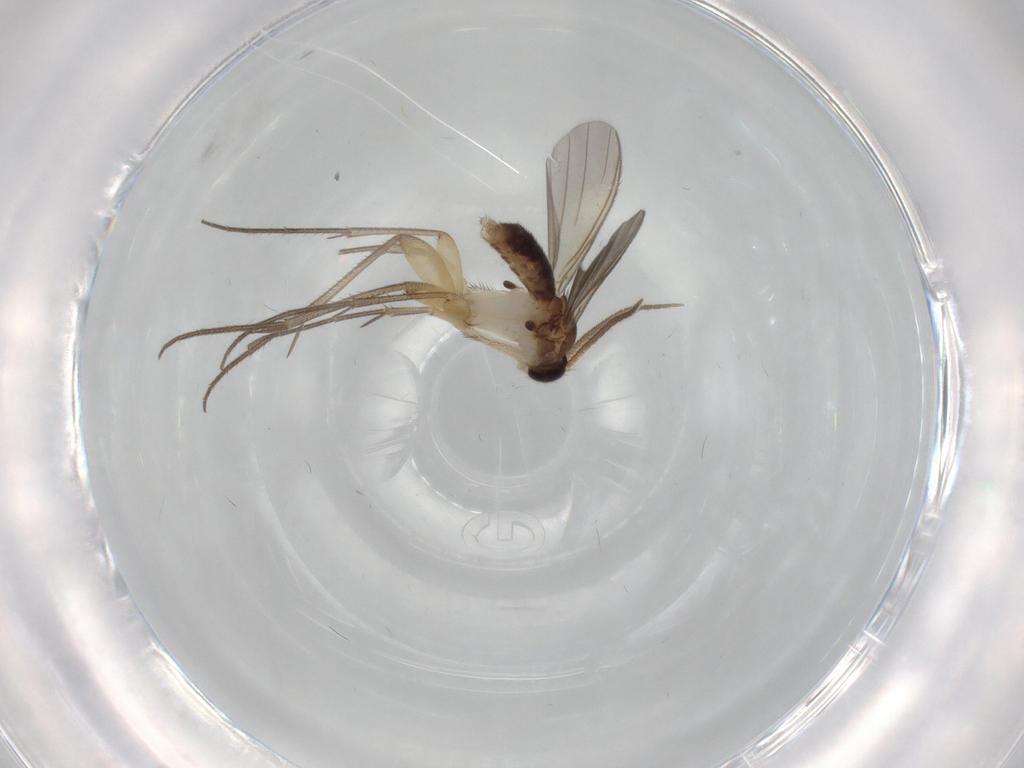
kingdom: Animalia
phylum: Arthropoda
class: Insecta
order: Diptera
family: Mycetophilidae
